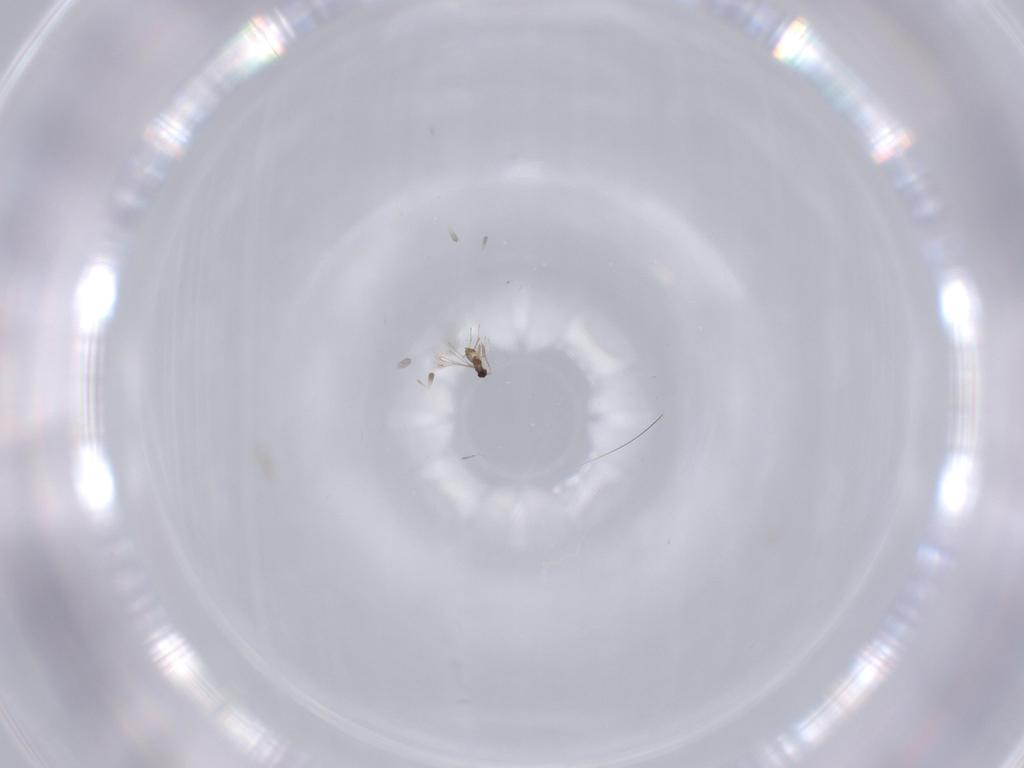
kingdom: Animalia
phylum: Arthropoda
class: Insecta
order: Hymenoptera
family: Mymaridae
